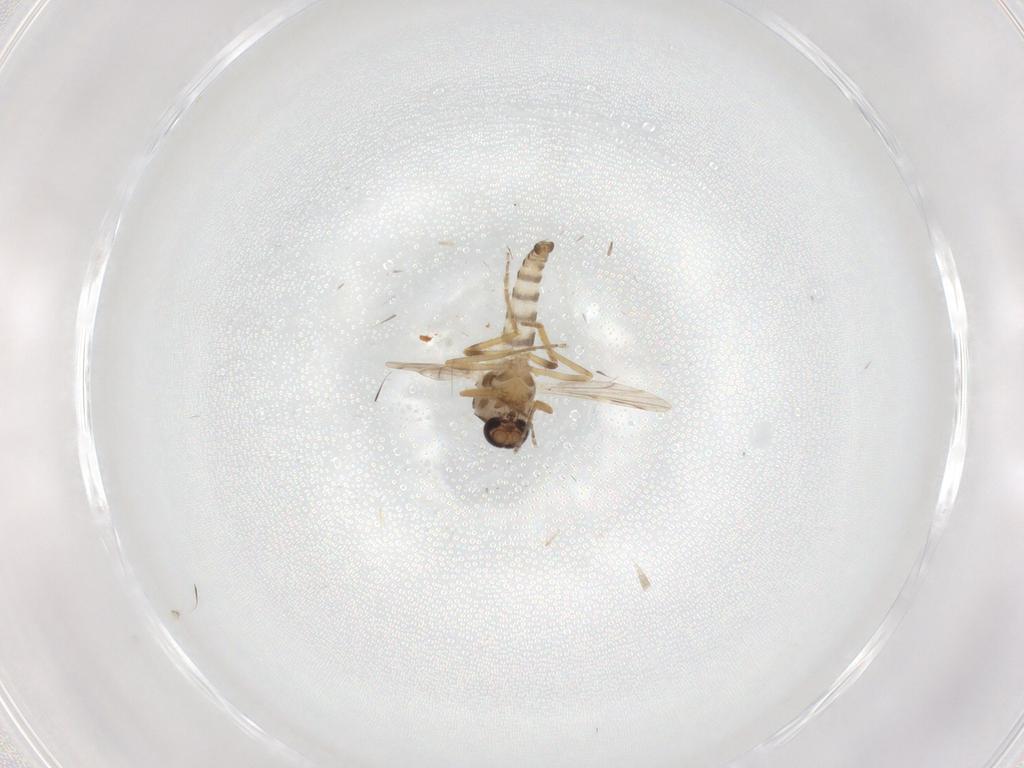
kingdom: Animalia
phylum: Arthropoda
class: Insecta
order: Diptera
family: Ceratopogonidae
